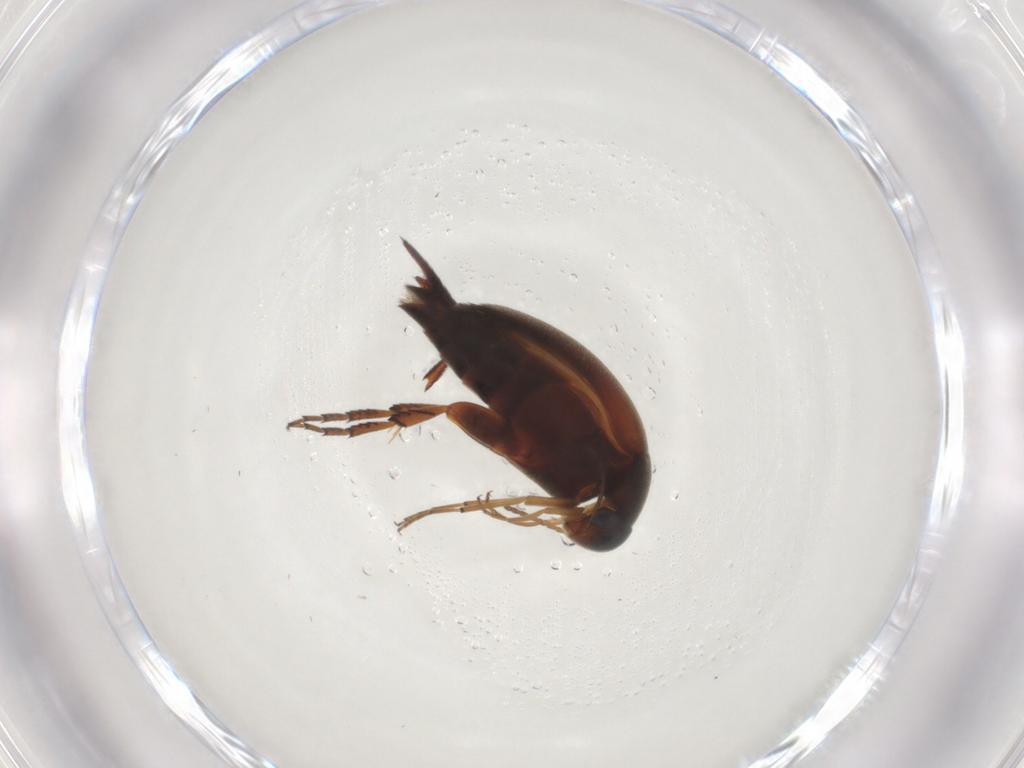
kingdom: Animalia
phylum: Arthropoda
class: Insecta
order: Coleoptera
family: Lampyridae
